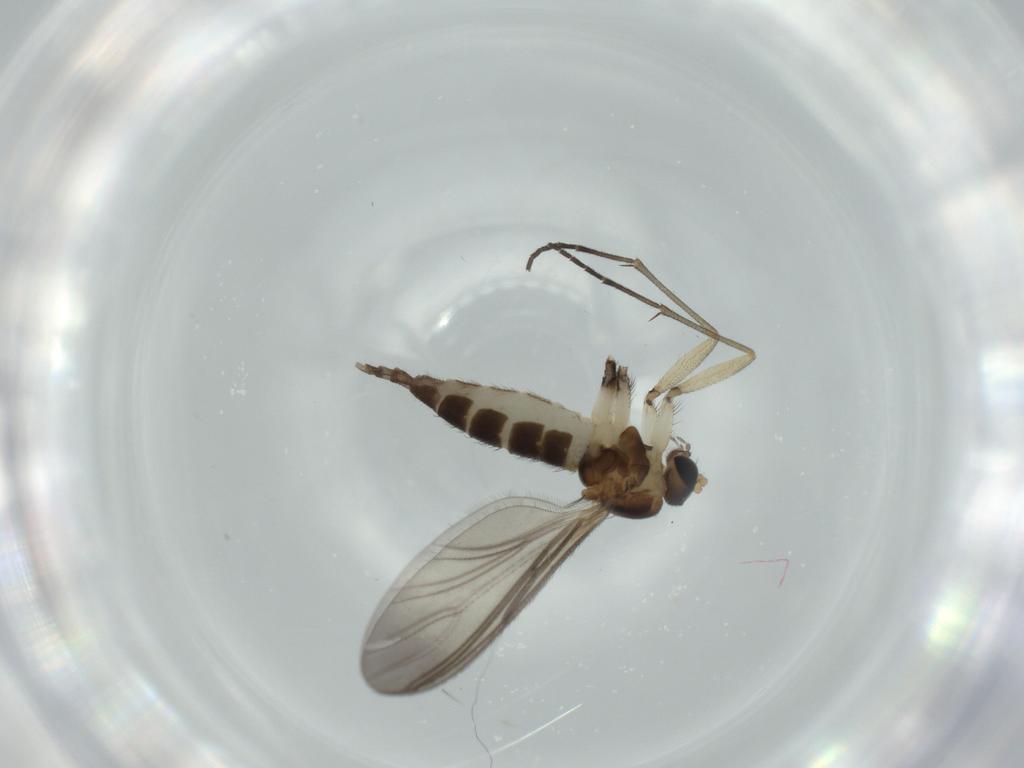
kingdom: Animalia
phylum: Arthropoda
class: Insecta
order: Diptera
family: Sciaridae
